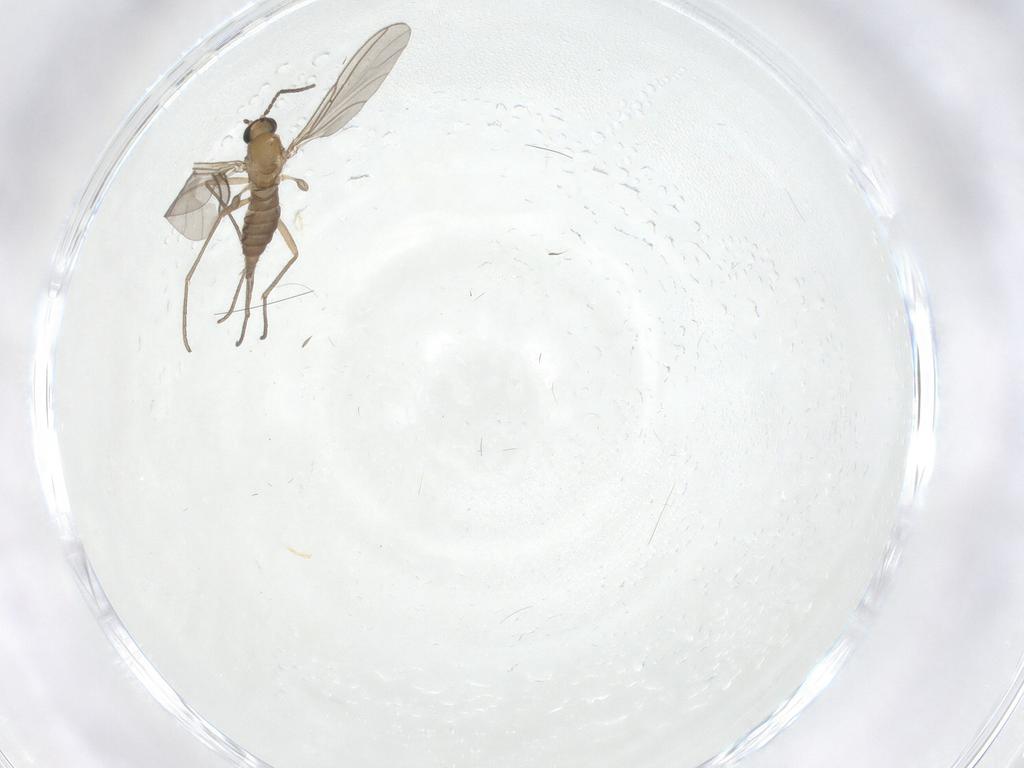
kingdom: Animalia
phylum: Arthropoda
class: Insecta
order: Diptera
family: Sciaridae
